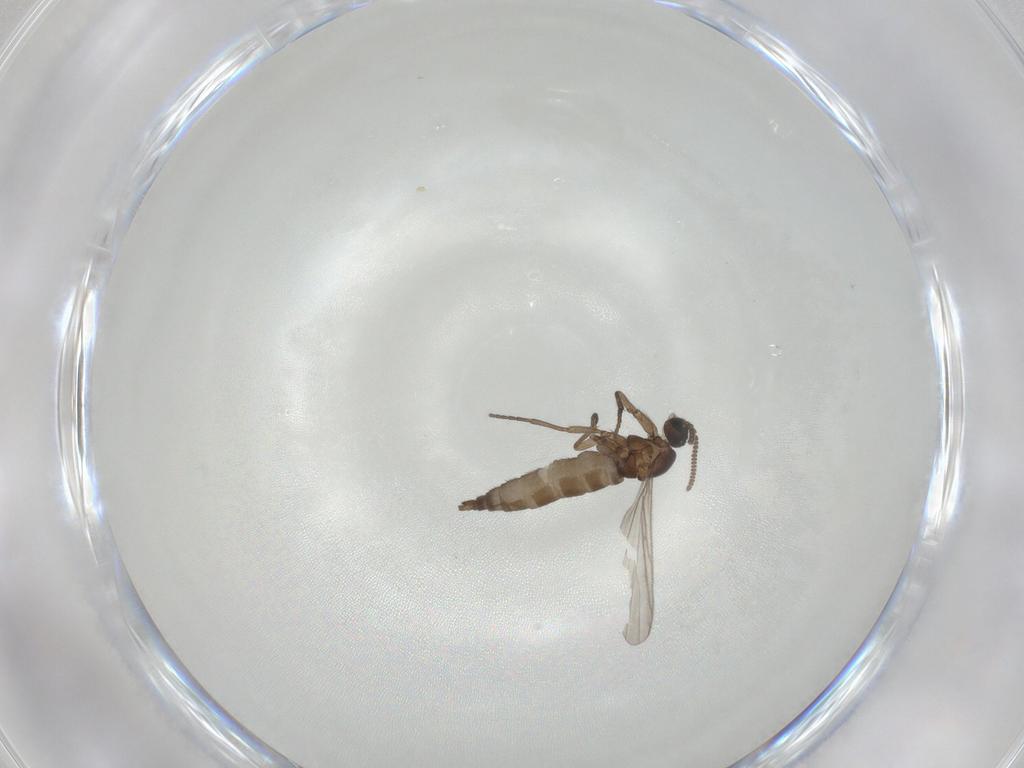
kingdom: Animalia
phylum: Arthropoda
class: Insecta
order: Diptera
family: Sciaridae
